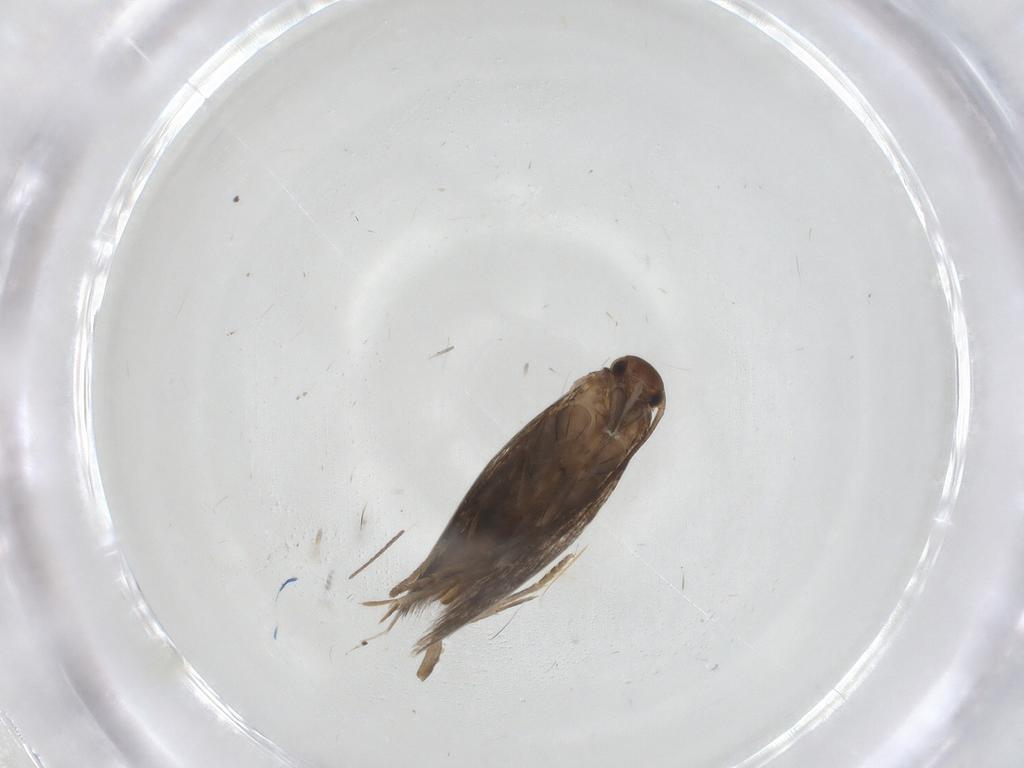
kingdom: Animalia
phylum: Arthropoda
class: Insecta
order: Lepidoptera
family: Elachistidae
